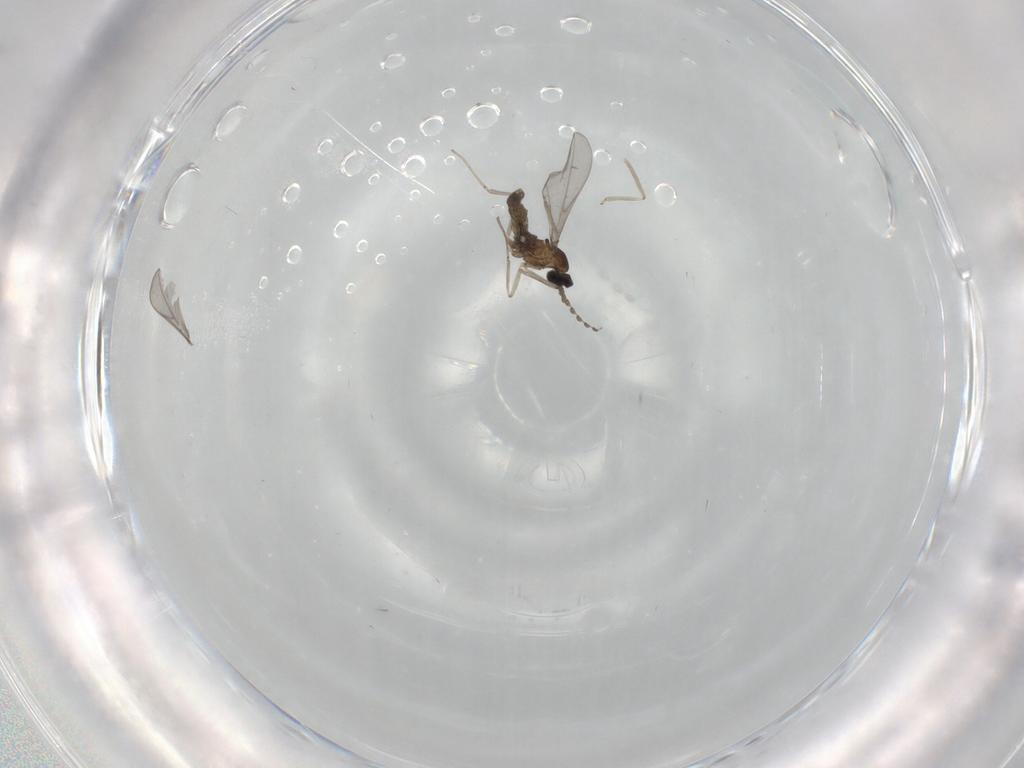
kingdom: Animalia
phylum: Arthropoda
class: Insecta
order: Diptera
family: Cecidomyiidae
